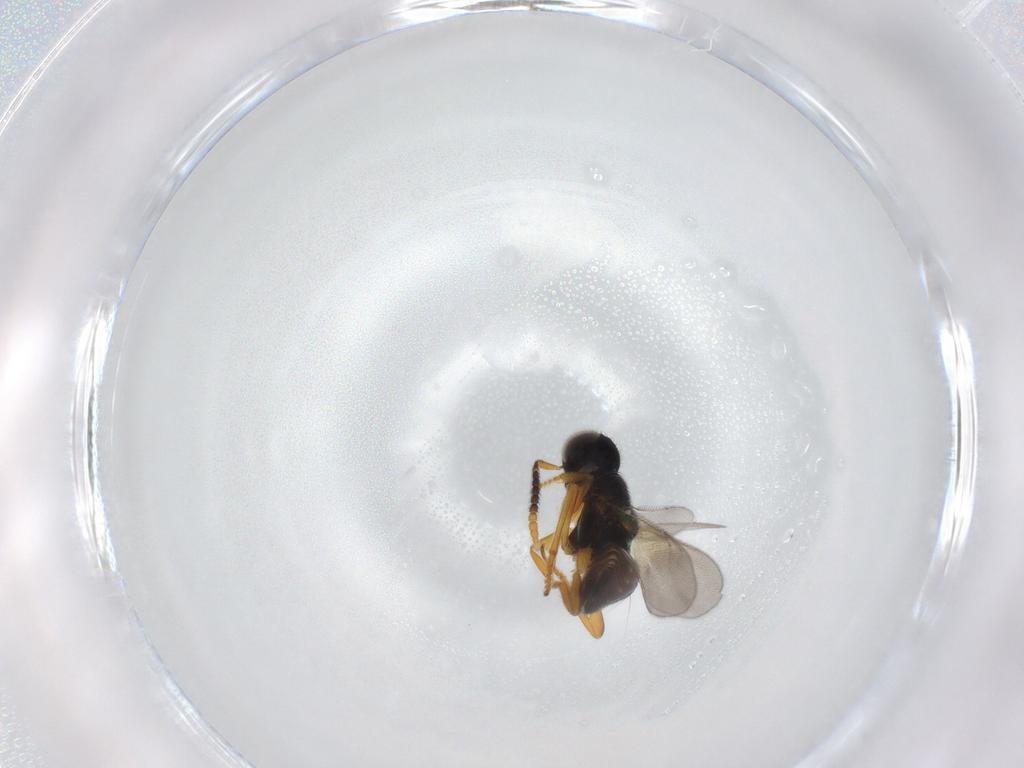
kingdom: Animalia
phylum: Arthropoda
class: Insecta
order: Hymenoptera
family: Encyrtidae
